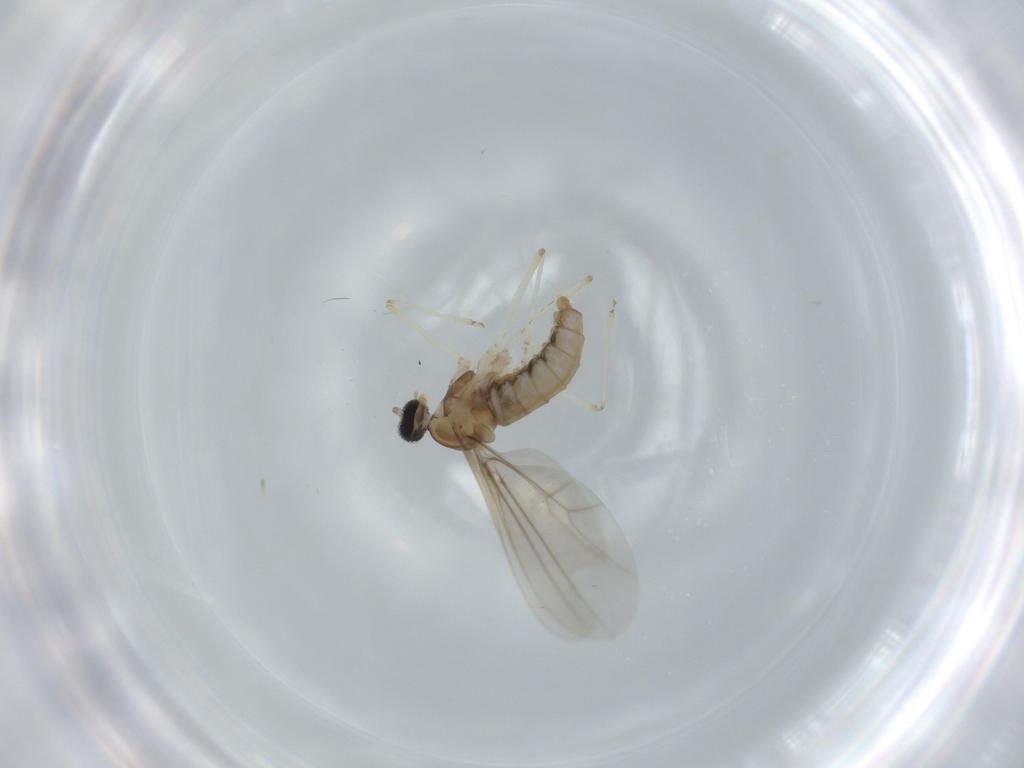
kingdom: Animalia
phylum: Arthropoda
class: Insecta
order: Diptera
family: Cecidomyiidae
